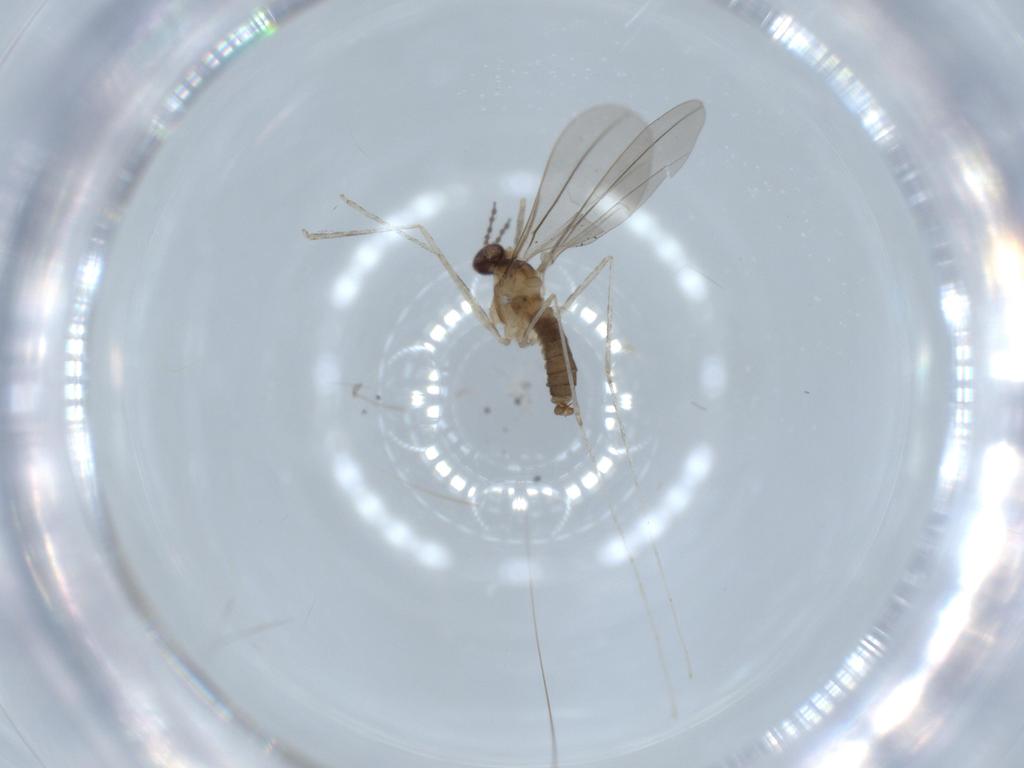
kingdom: Animalia
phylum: Arthropoda
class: Insecta
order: Diptera
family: Cecidomyiidae
